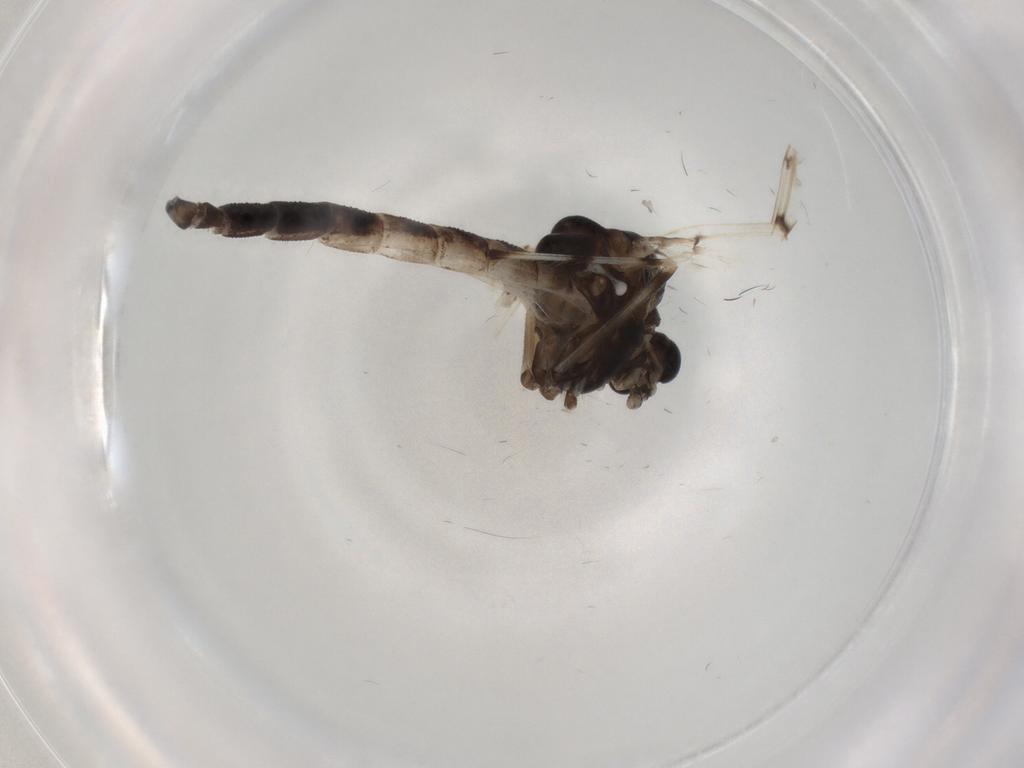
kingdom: Animalia
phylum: Arthropoda
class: Insecta
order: Diptera
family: Chironomidae
